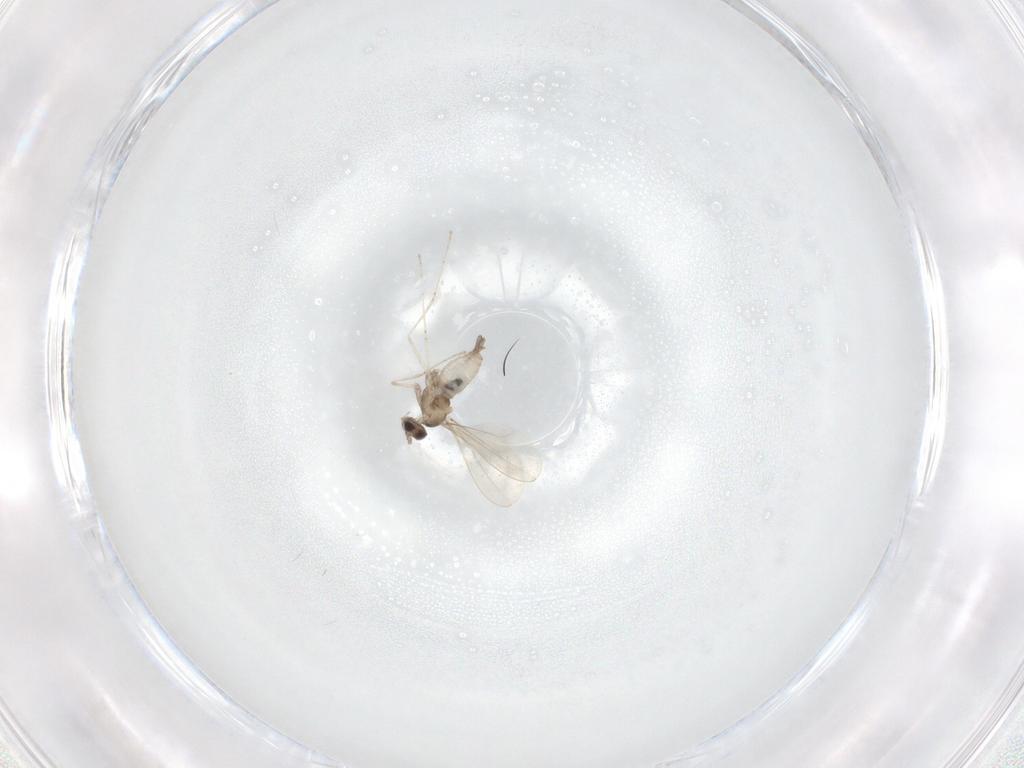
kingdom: Animalia
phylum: Arthropoda
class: Insecta
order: Diptera
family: Cecidomyiidae
